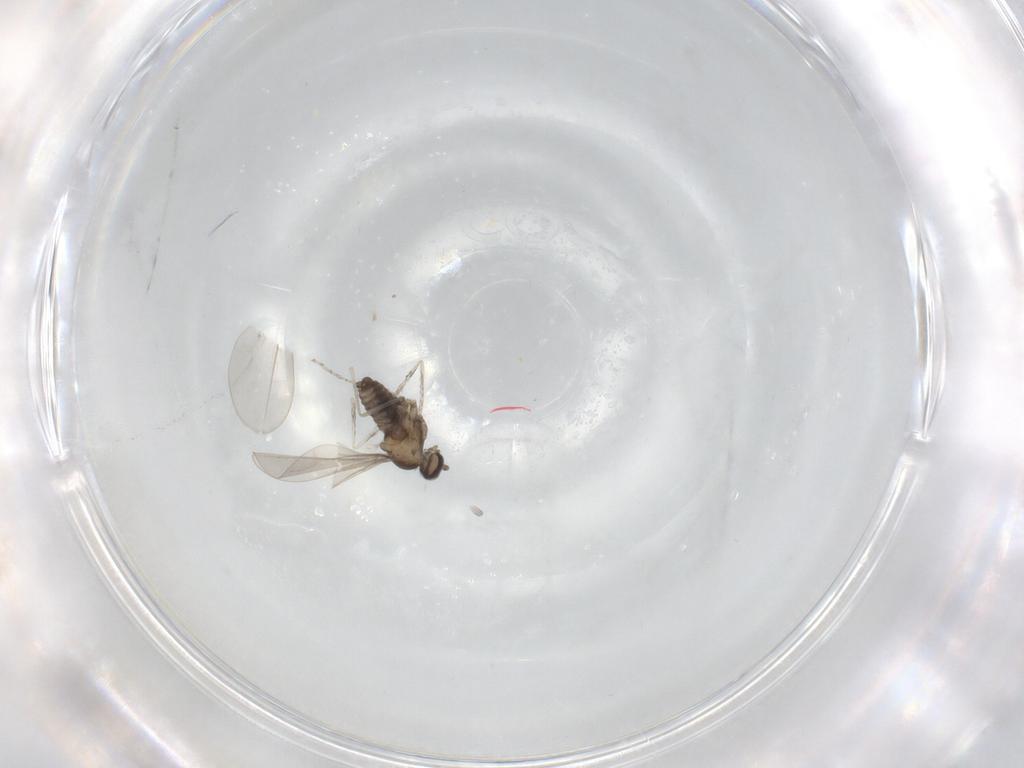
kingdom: Animalia
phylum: Arthropoda
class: Insecta
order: Diptera
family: Cecidomyiidae
